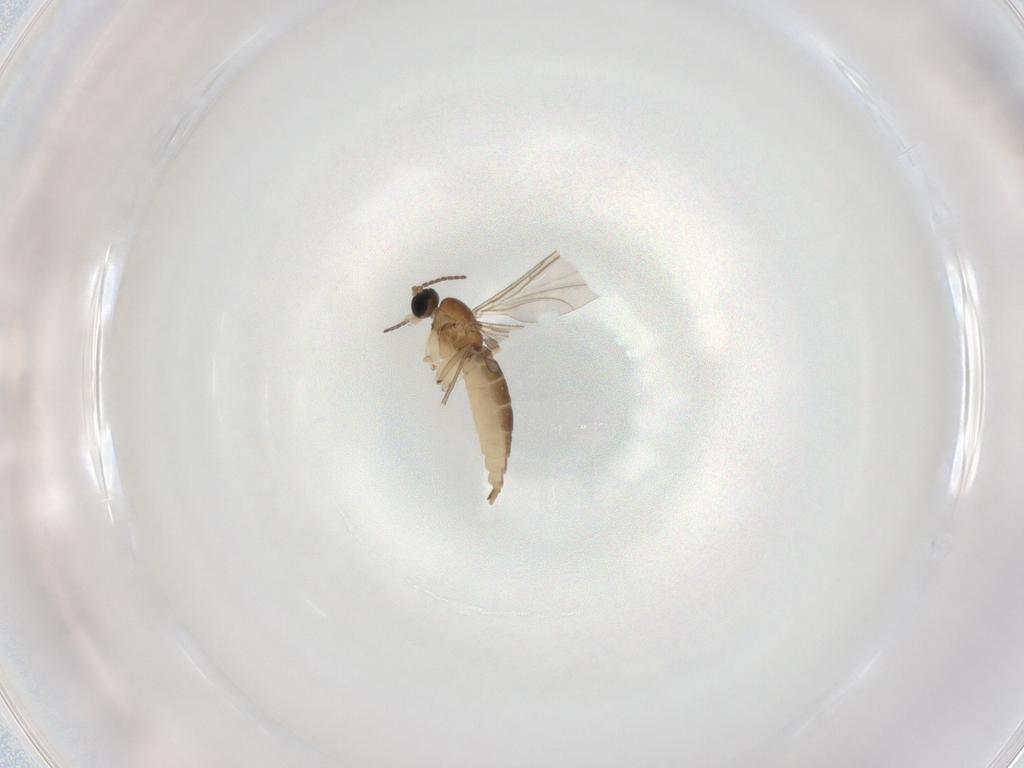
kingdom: Animalia
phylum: Arthropoda
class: Insecta
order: Diptera
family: Sciaridae
